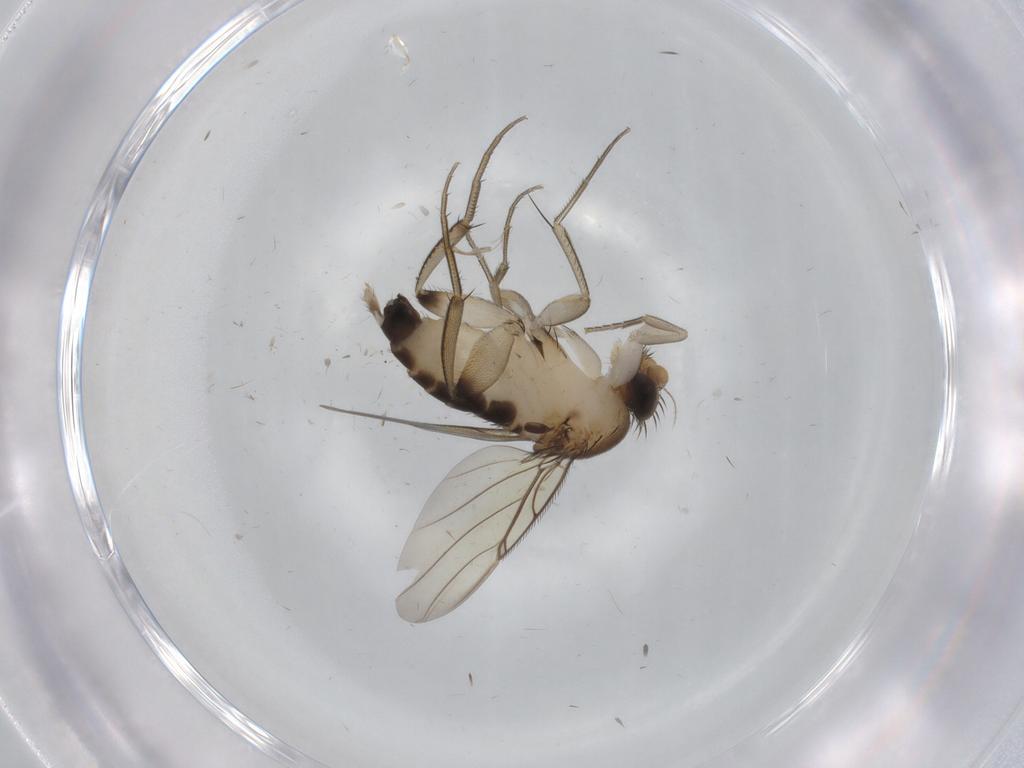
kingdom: Animalia
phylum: Arthropoda
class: Insecta
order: Diptera
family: Phoridae
